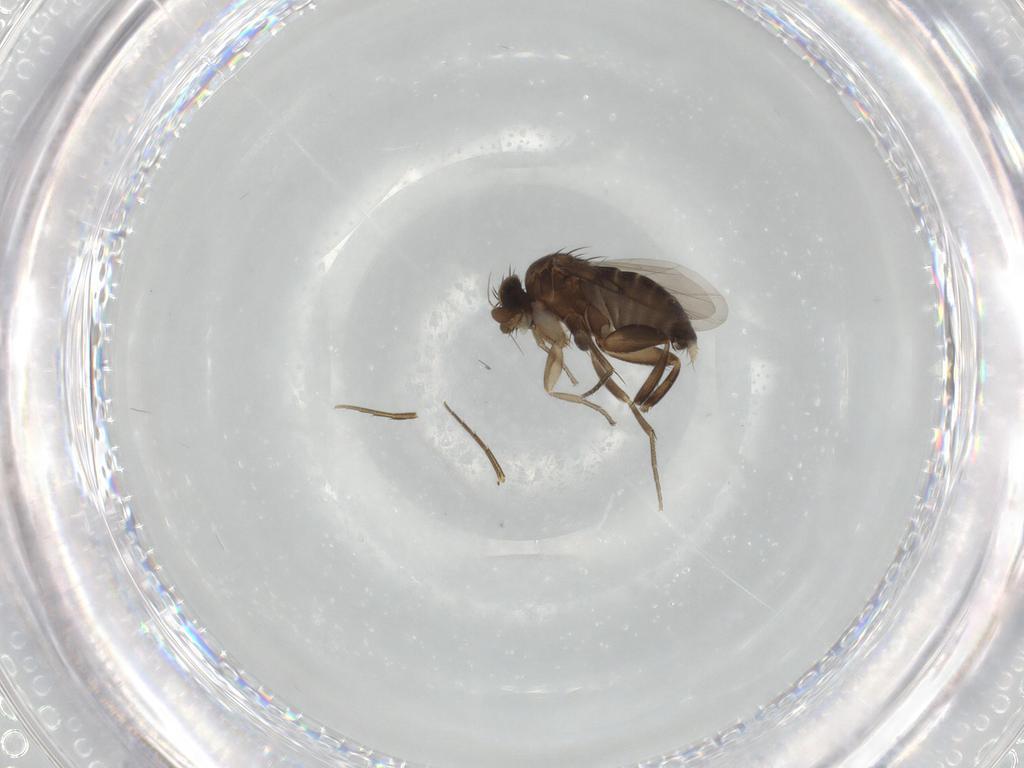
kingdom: Animalia
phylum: Arthropoda
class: Insecta
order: Diptera
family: Phoridae
